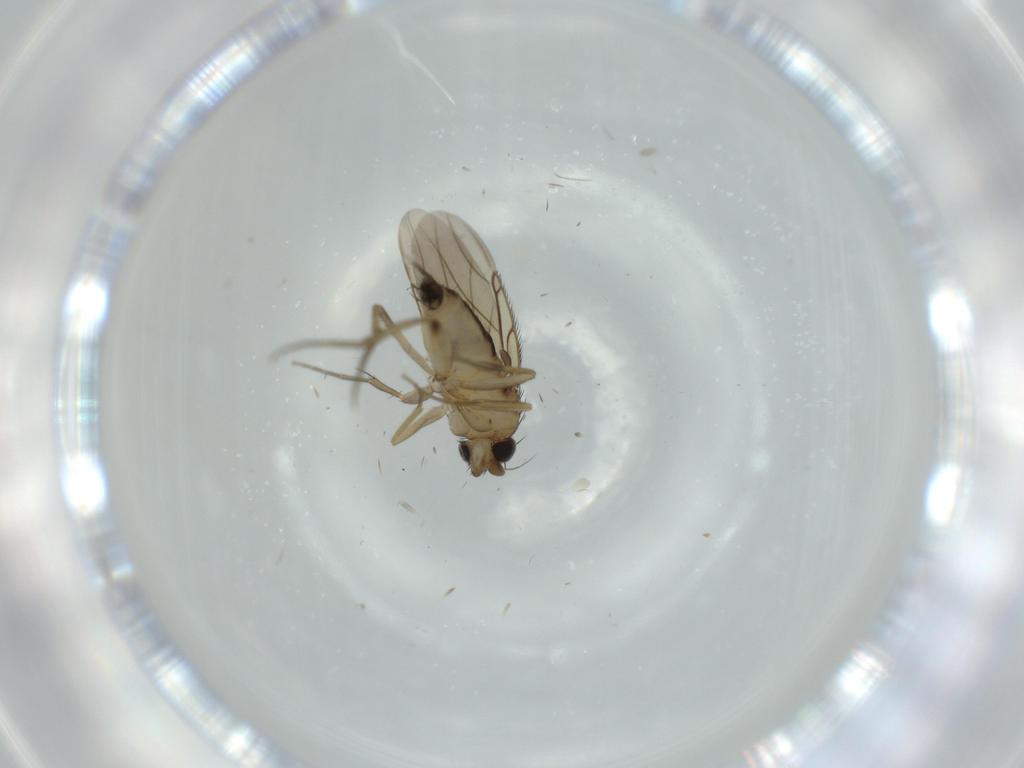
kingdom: Animalia
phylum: Arthropoda
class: Insecta
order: Diptera
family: Phoridae
